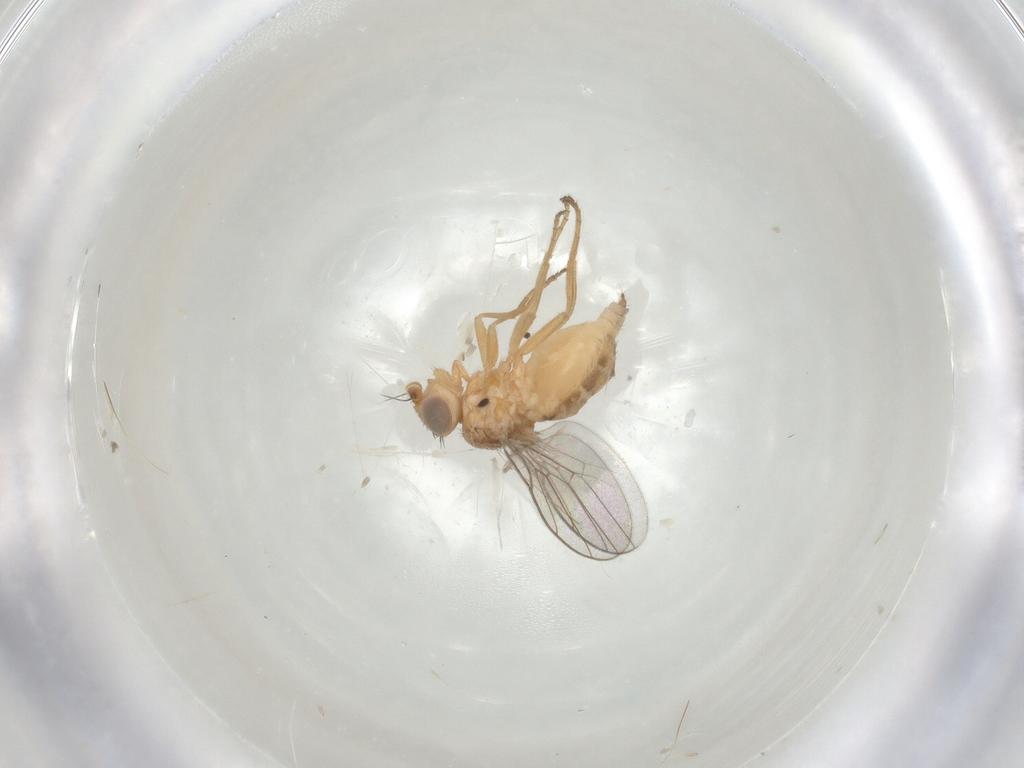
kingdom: Animalia
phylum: Arthropoda
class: Insecta
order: Diptera
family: Chloropidae
